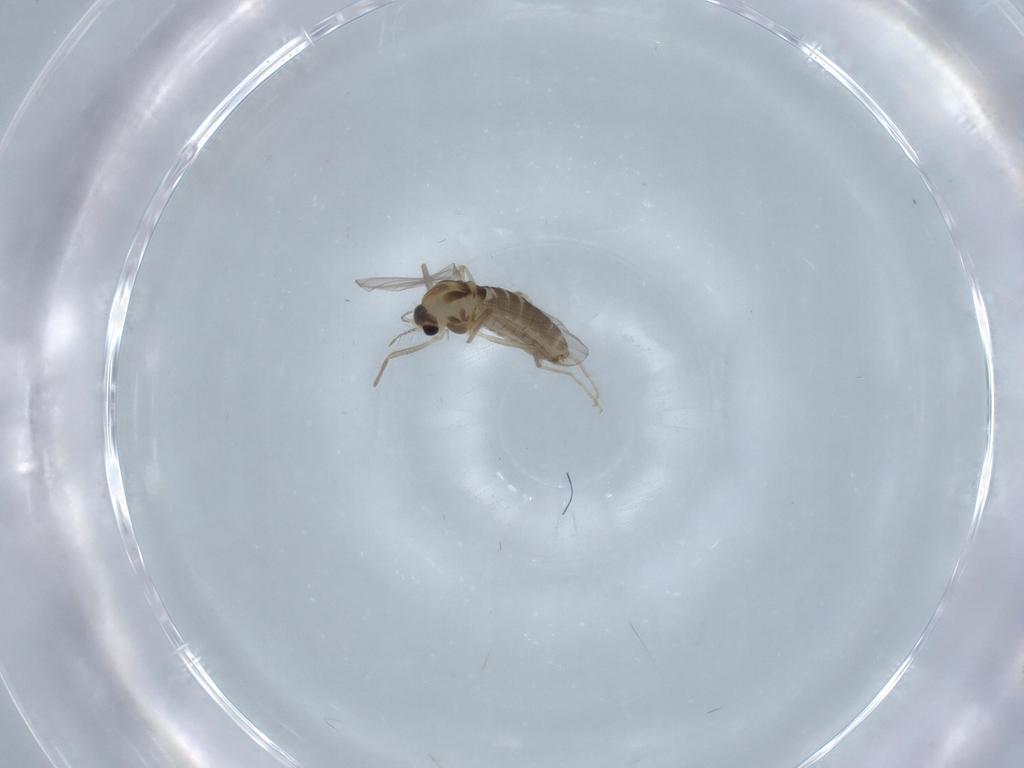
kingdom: Animalia
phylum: Arthropoda
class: Insecta
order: Diptera
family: Chironomidae
